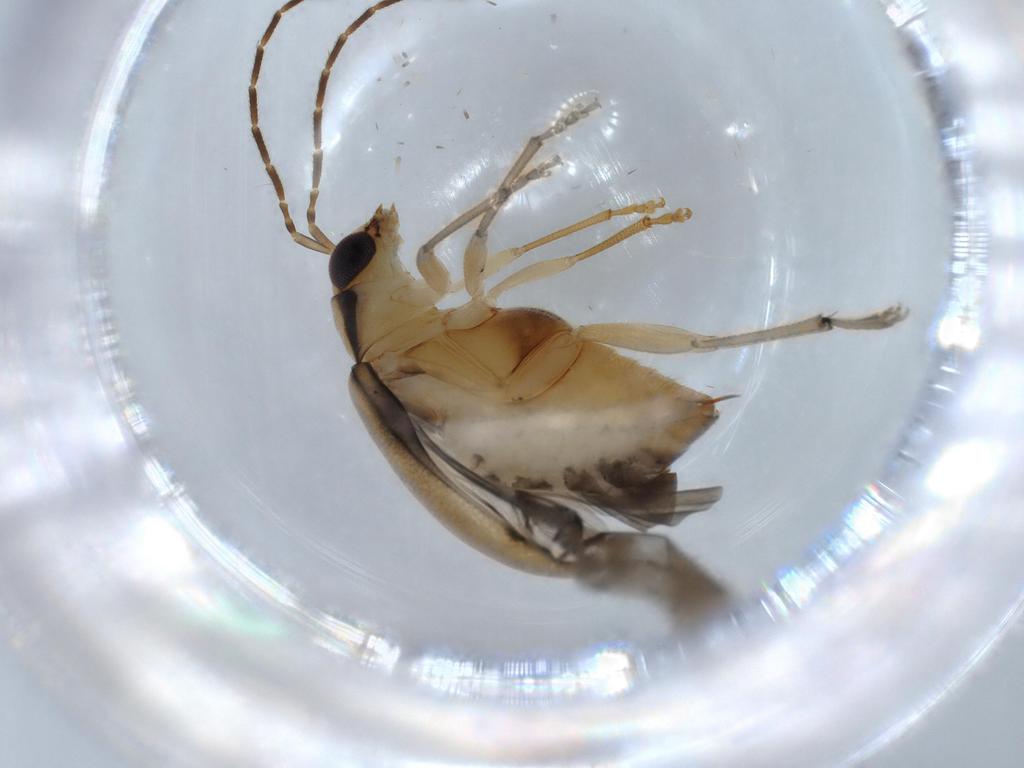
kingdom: Animalia
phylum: Arthropoda
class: Insecta
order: Coleoptera
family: Chrysomelidae
